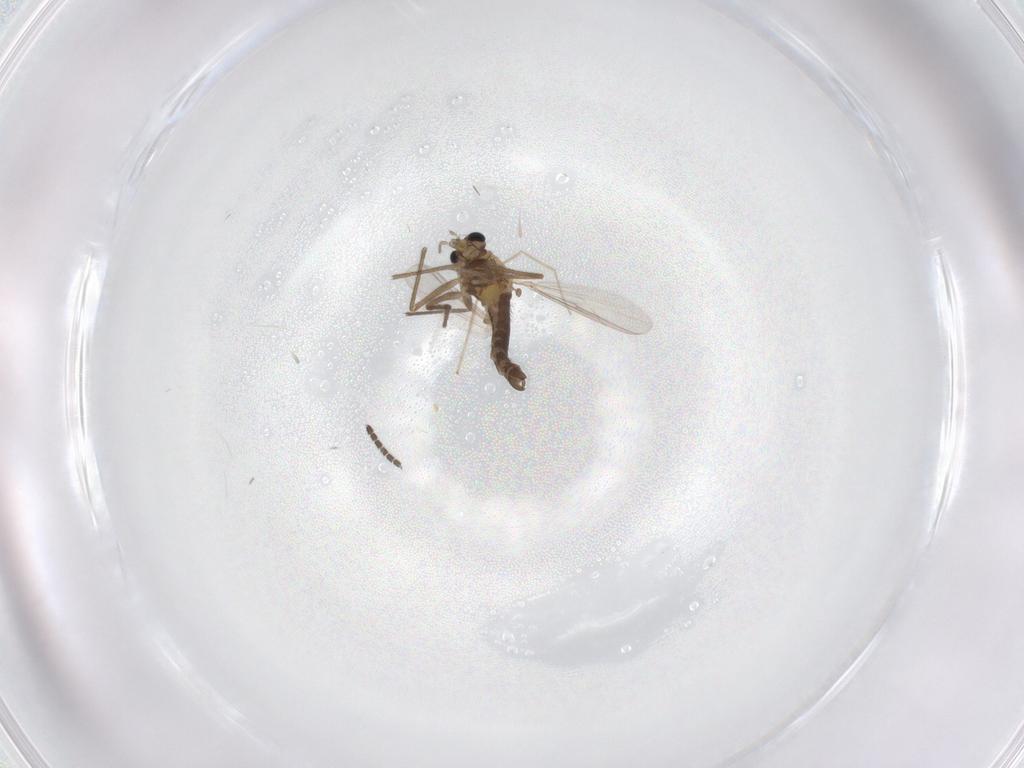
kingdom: Animalia
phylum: Arthropoda
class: Insecta
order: Diptera
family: Chironomidae
